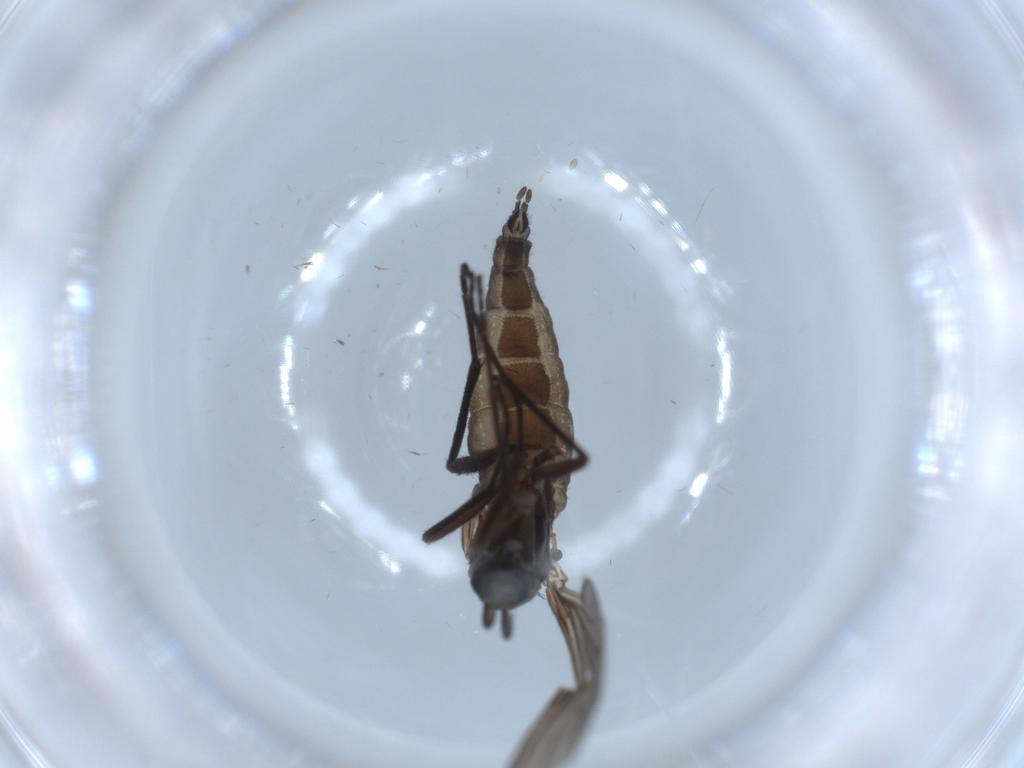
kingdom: Animalia
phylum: Arthropoda
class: Insecta
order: Diptera
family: Sciaridae
